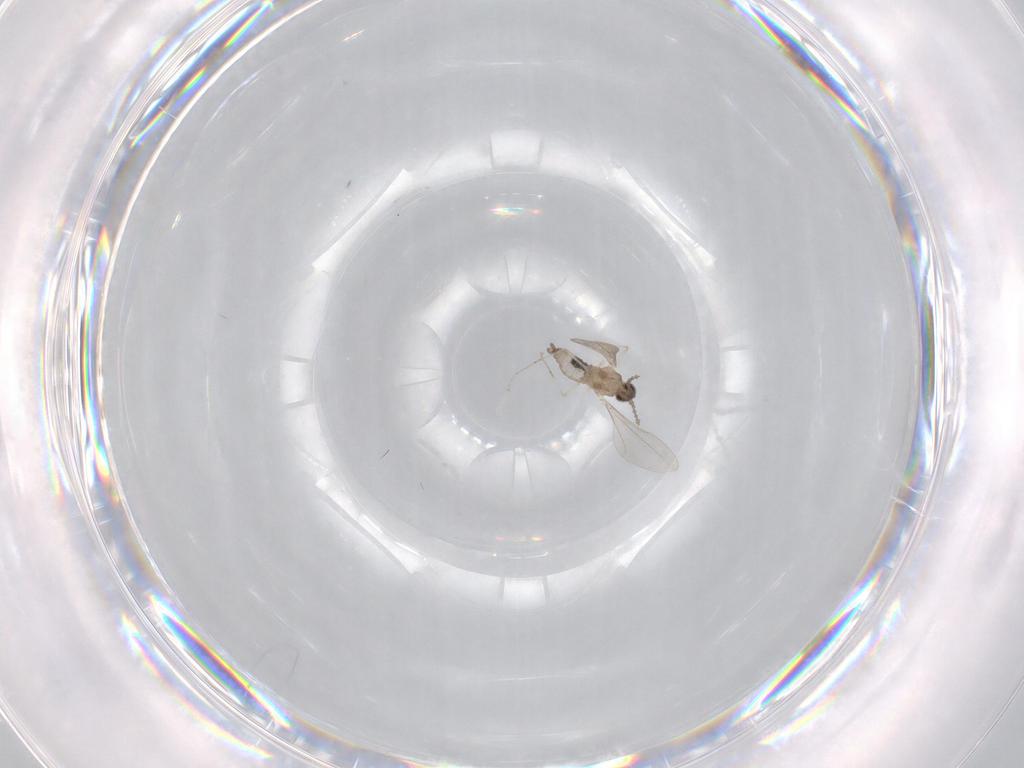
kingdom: Animalia
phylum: Arthropoda
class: Insecta
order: Diptera
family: Cecidomyiidae
